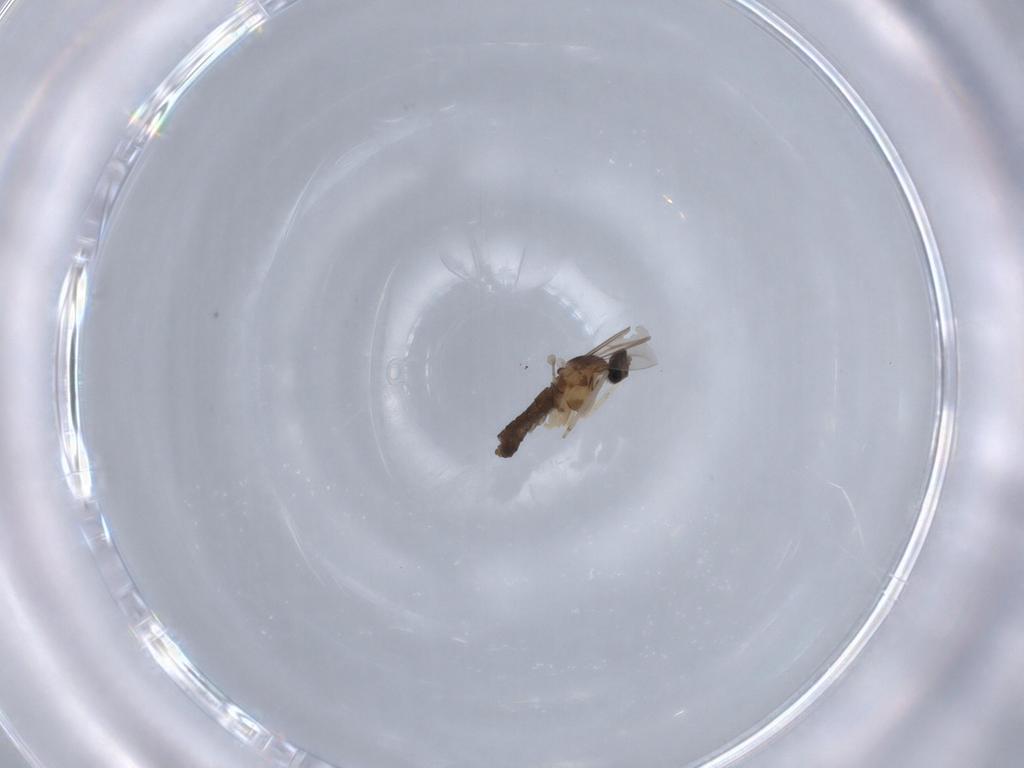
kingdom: Animalia
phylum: Arthropoda
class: Insecta
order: Diptera
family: Cecidomyiidae
